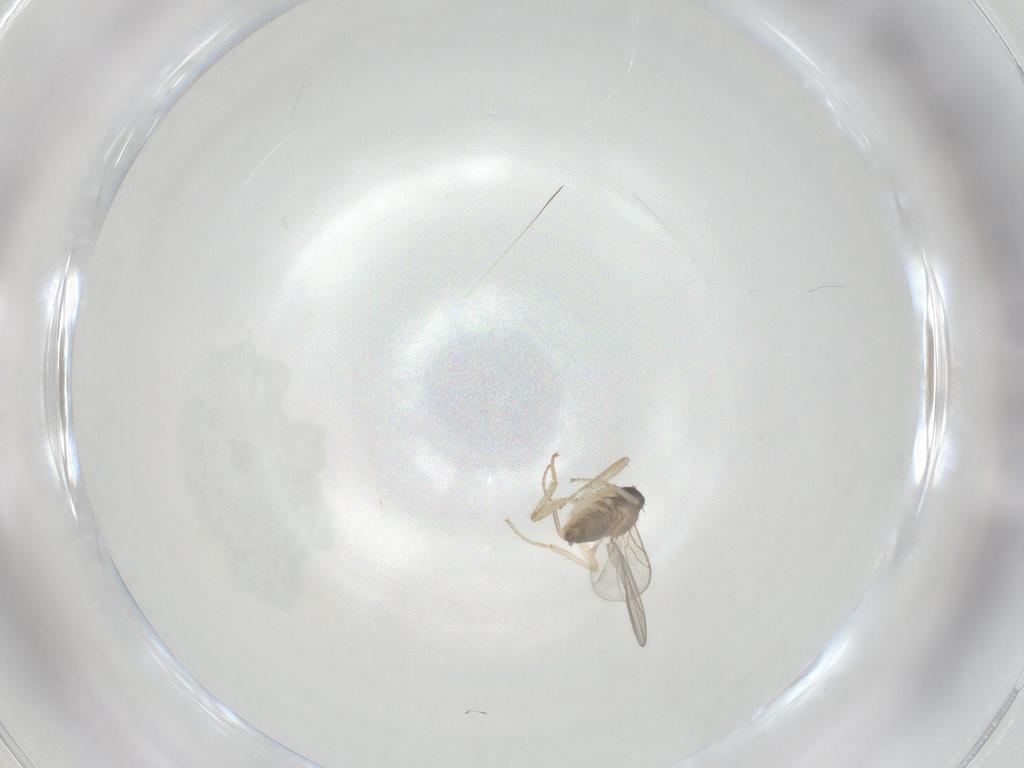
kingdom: Animalia
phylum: Arthropoda
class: Insecta
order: Diptera
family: Hybotidae
